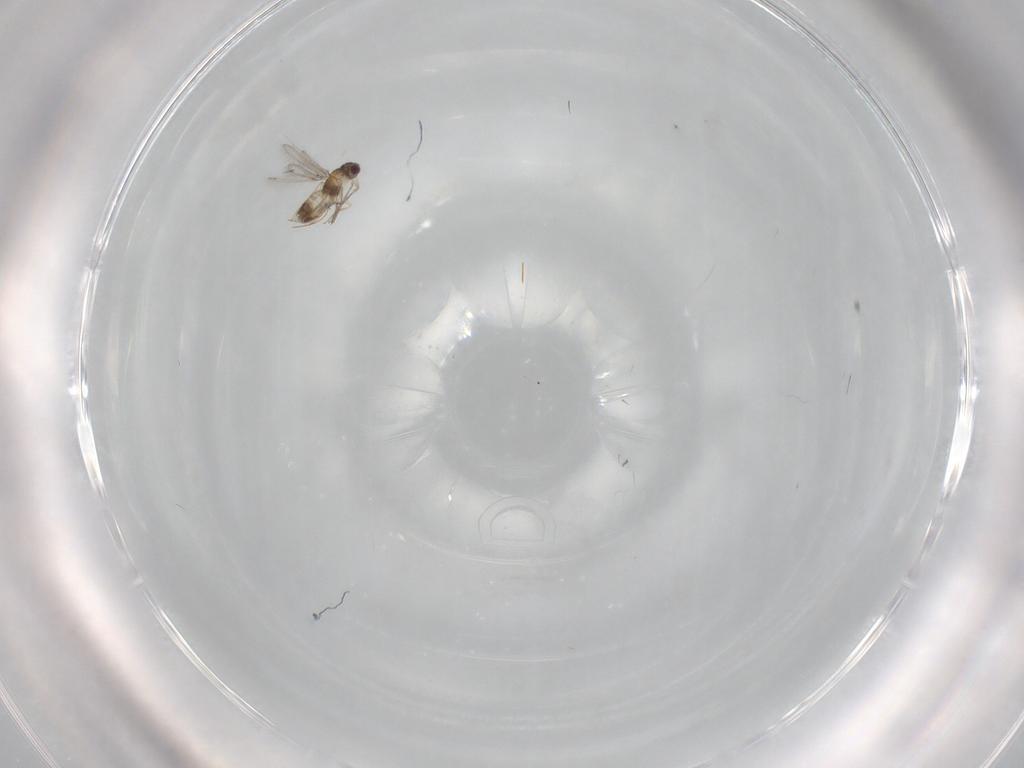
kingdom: Animalia
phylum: Arthropoda
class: Insecta
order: Hymenoptera
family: Mymaridae
